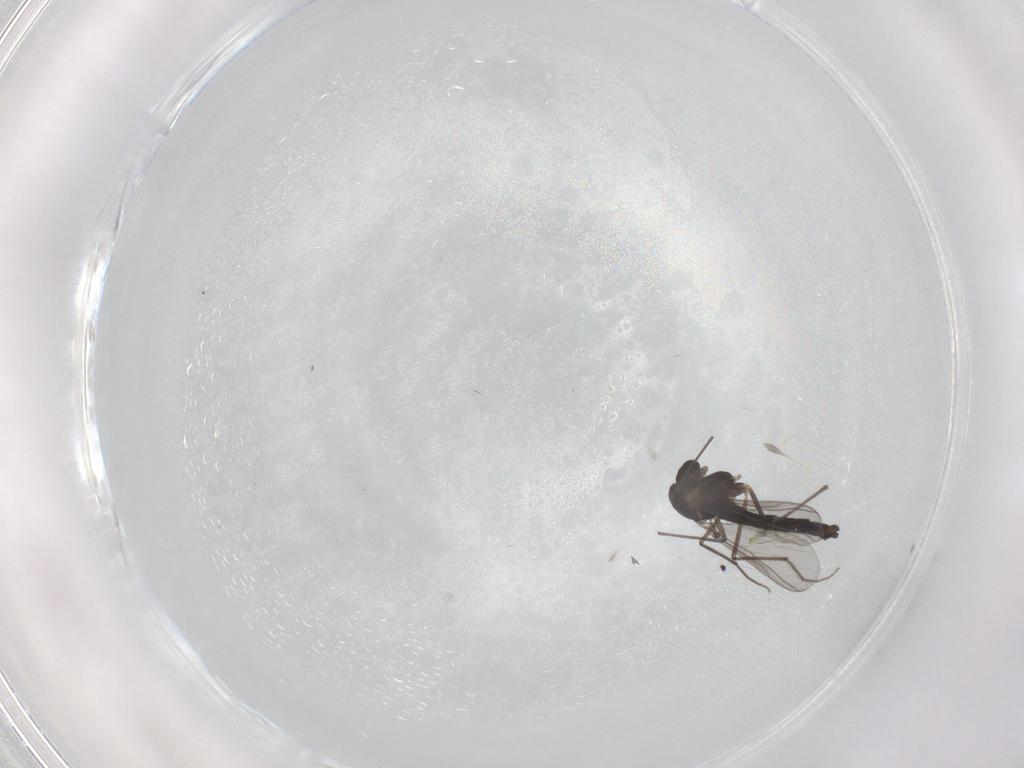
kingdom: Animalia
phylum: Arthropoda
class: Insecta
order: Diptera
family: Chironomidae
